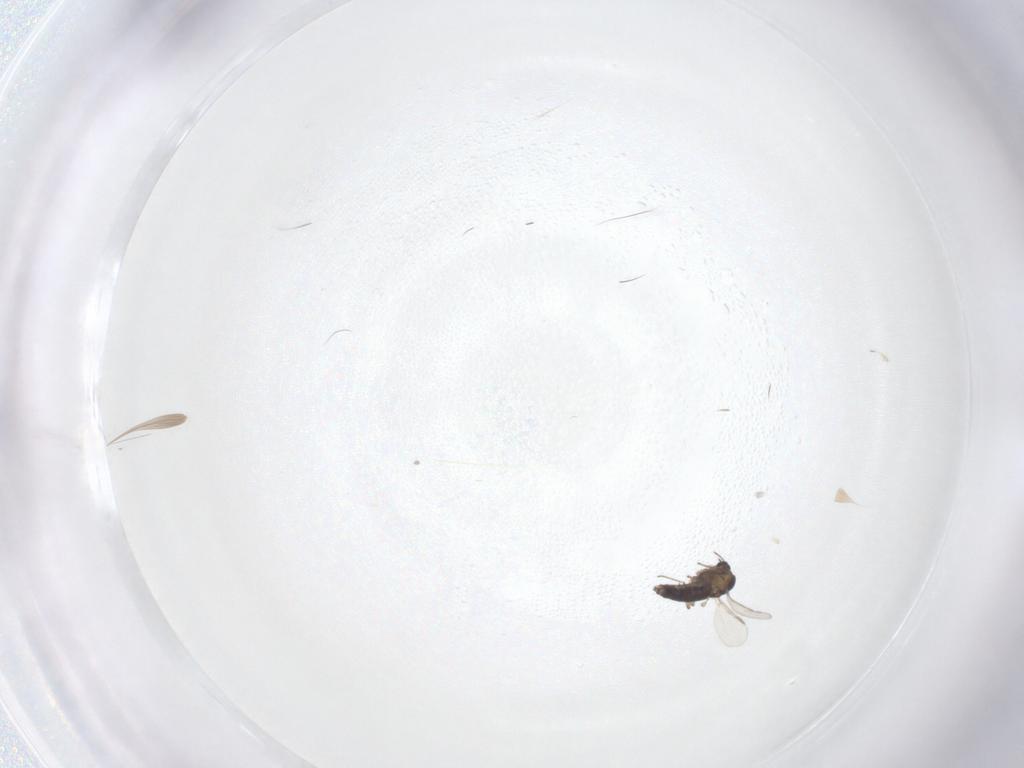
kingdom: Animalia
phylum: Arthropoda
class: Insecta
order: Diptera
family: Chironomidae
